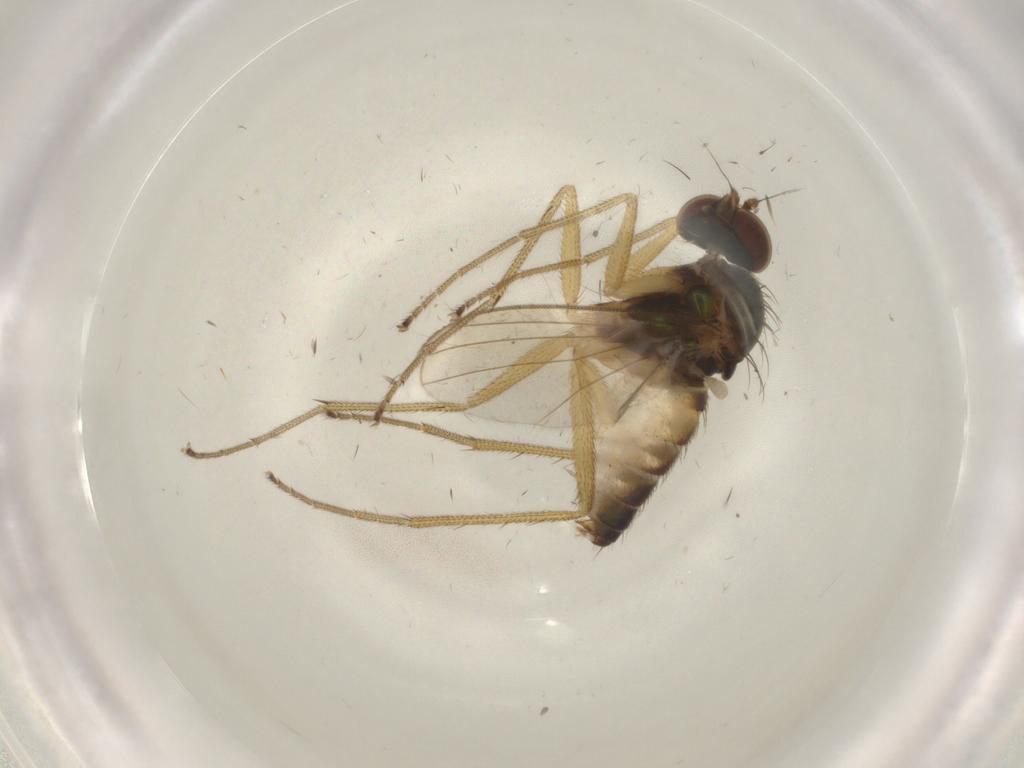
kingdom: Animalia
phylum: Arthropoda
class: Insecta
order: Diptera
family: Dolichopodidae
